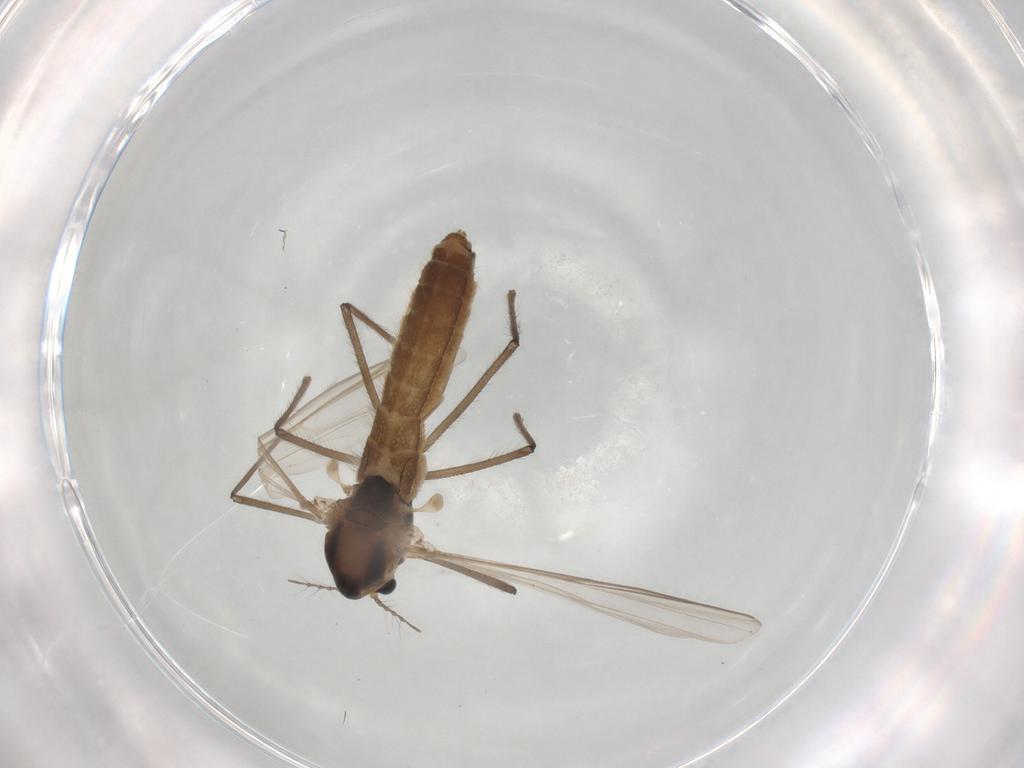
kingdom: Animalia
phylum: Arthropoda
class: Insecta
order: Diptera
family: Chironomidae
